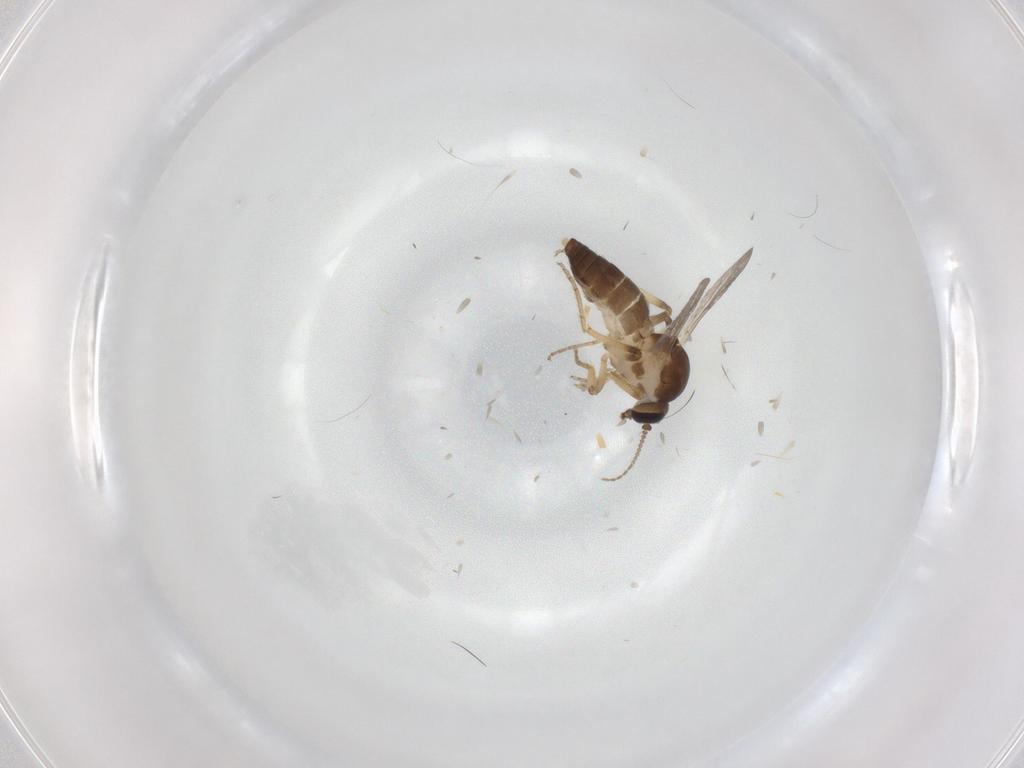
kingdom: Animalia
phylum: Arthropoda
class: Insecta
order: Diptera
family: Ceratopogonidae
